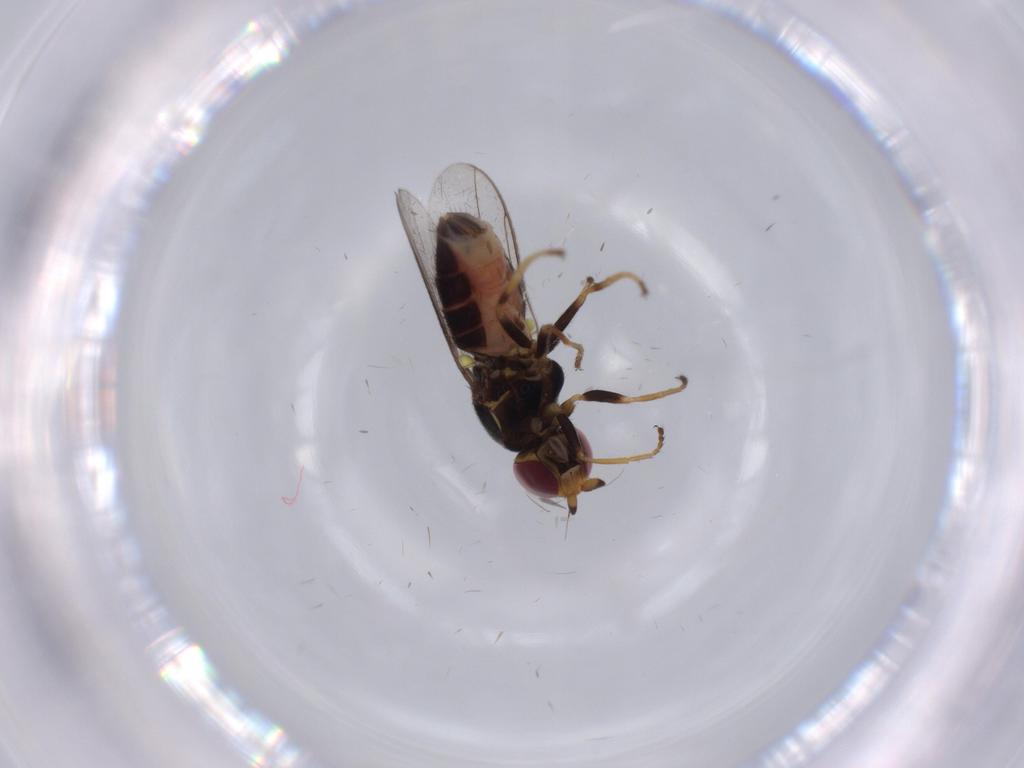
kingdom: Animalia
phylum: Arthropoda
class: Insecta
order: Diptera
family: Chloropidae
